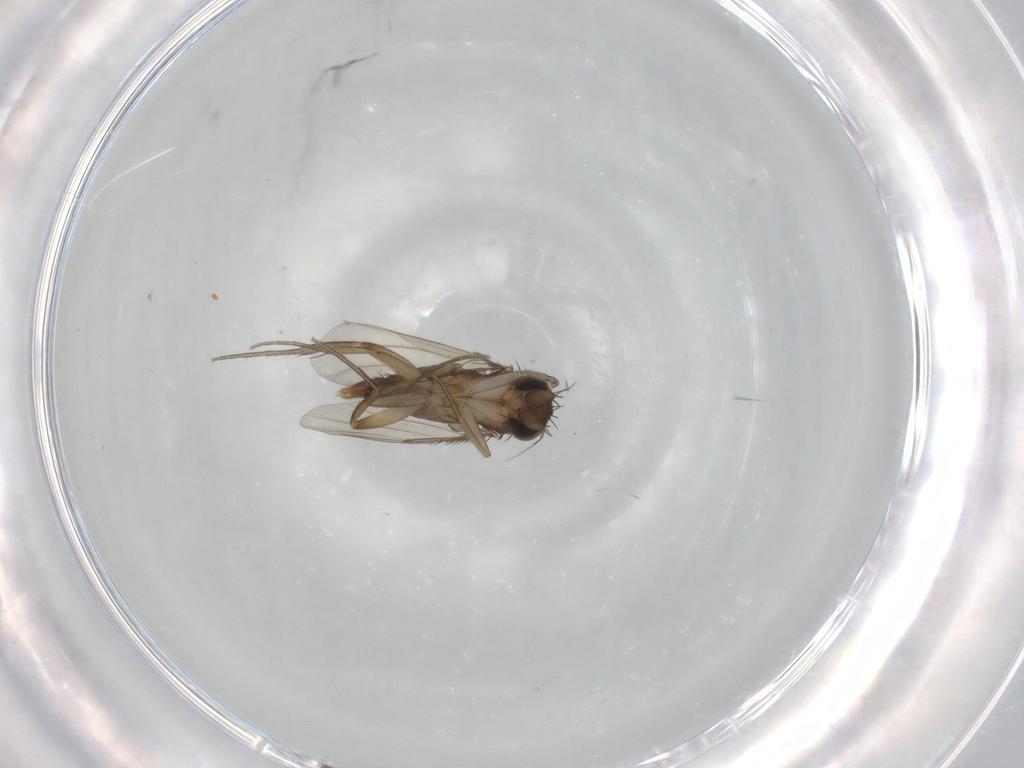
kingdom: Animalia
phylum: Arthropoda
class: Insecta
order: Diptera
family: Phoridae
